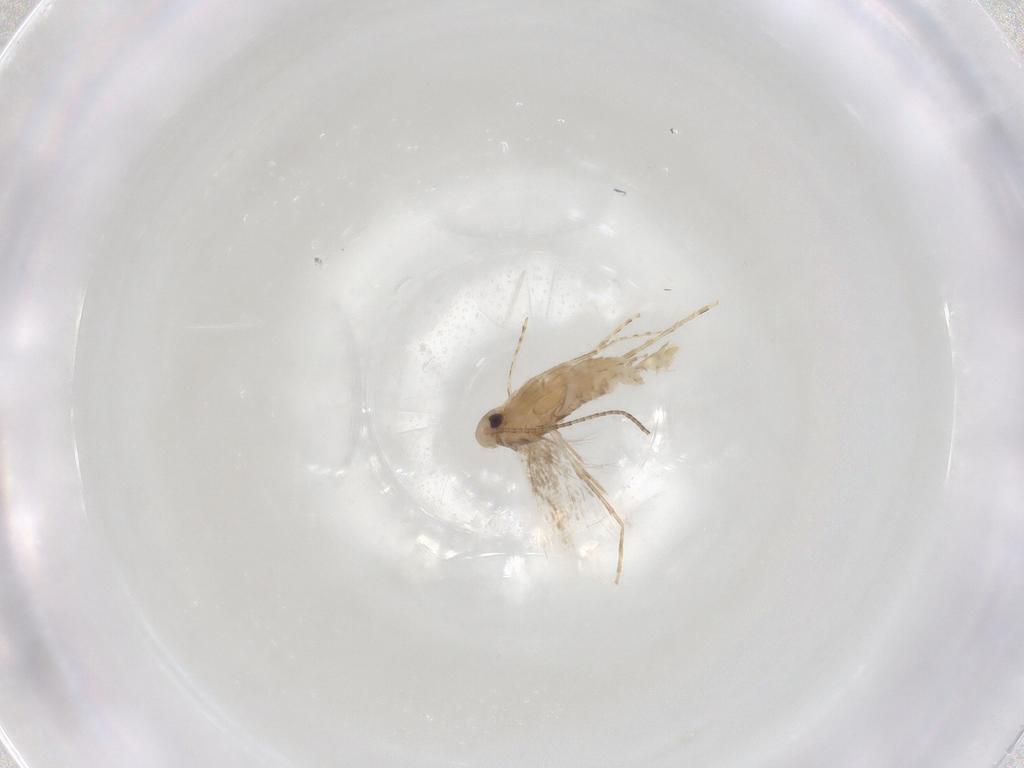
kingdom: Animalia
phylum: Arthropoda
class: Insecta
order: Lepidoptera
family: Gracillariidae
